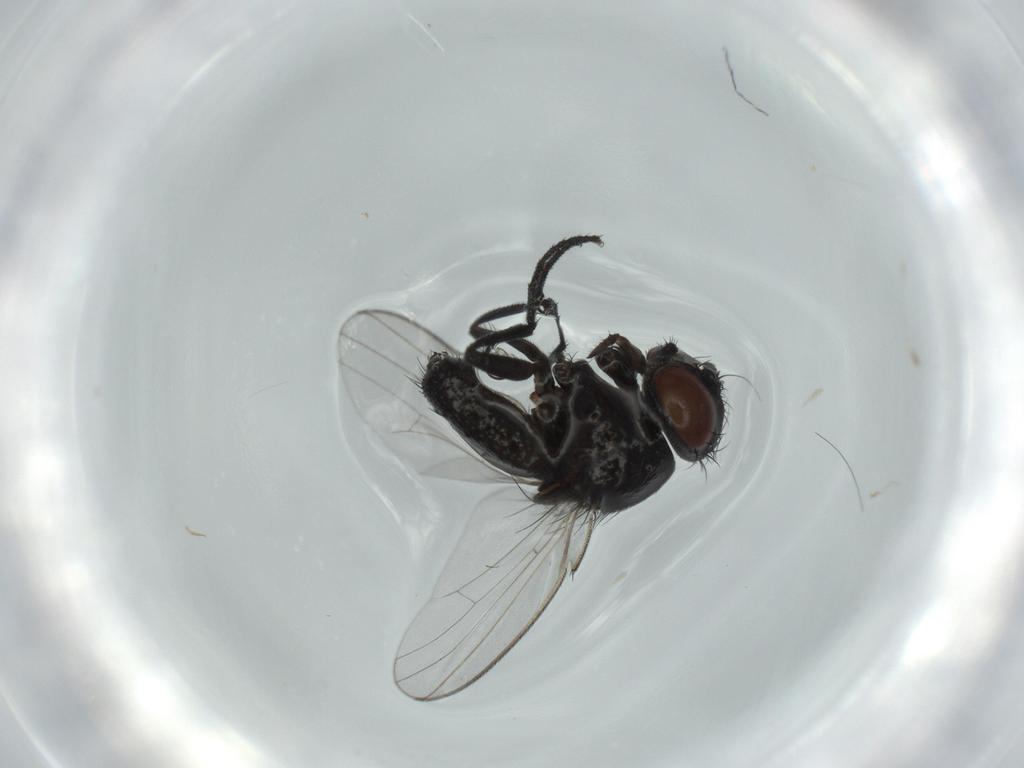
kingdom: Animalia
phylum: Arthropoda
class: Insecta
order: Diptera
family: Milichiidae
